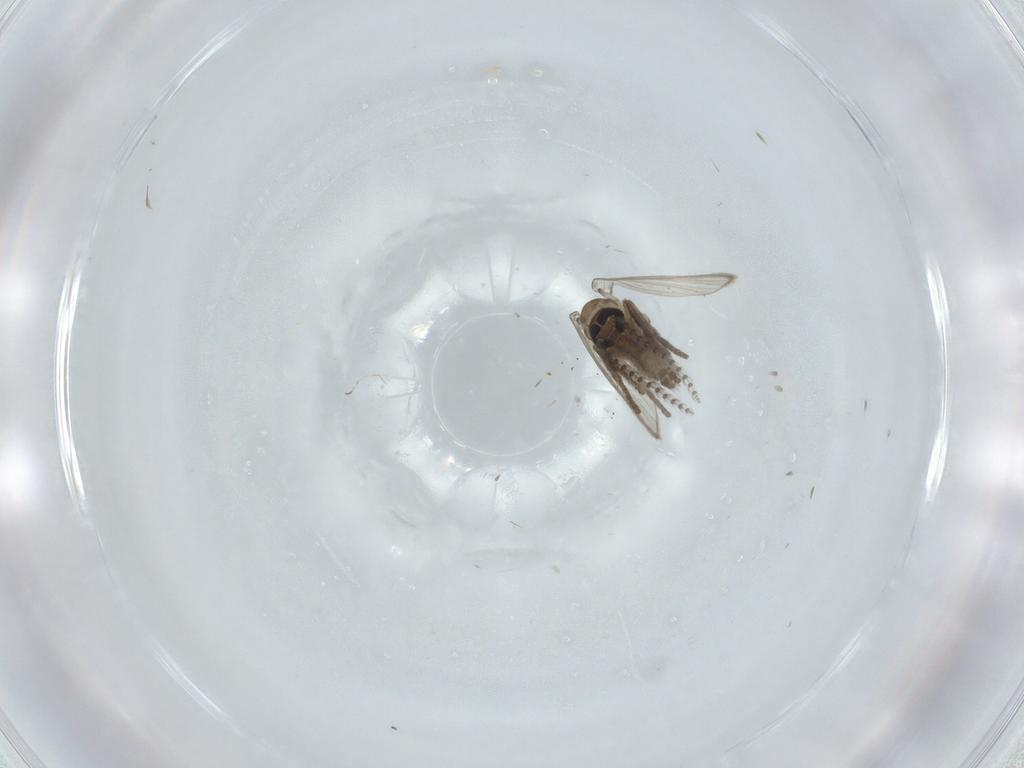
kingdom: Animalia
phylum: Arthropoda
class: Insecta
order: Diptera
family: Psychodidae
